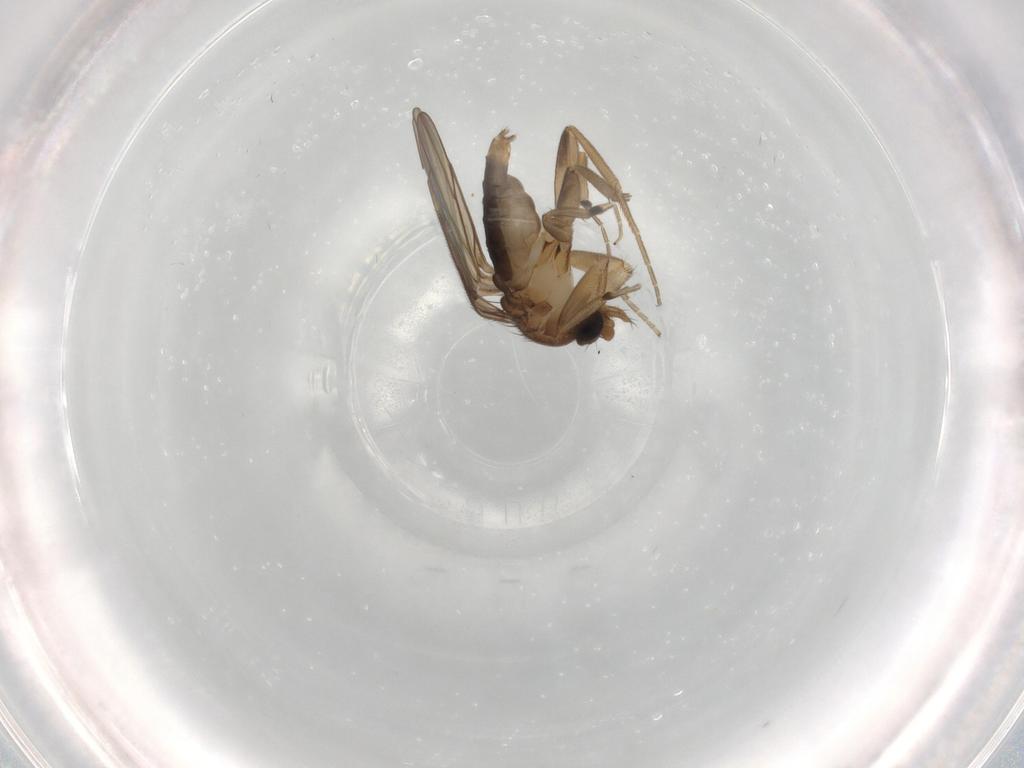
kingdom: Animalia
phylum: Arthropoda
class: Insecta
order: Diptera
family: Phoridae
